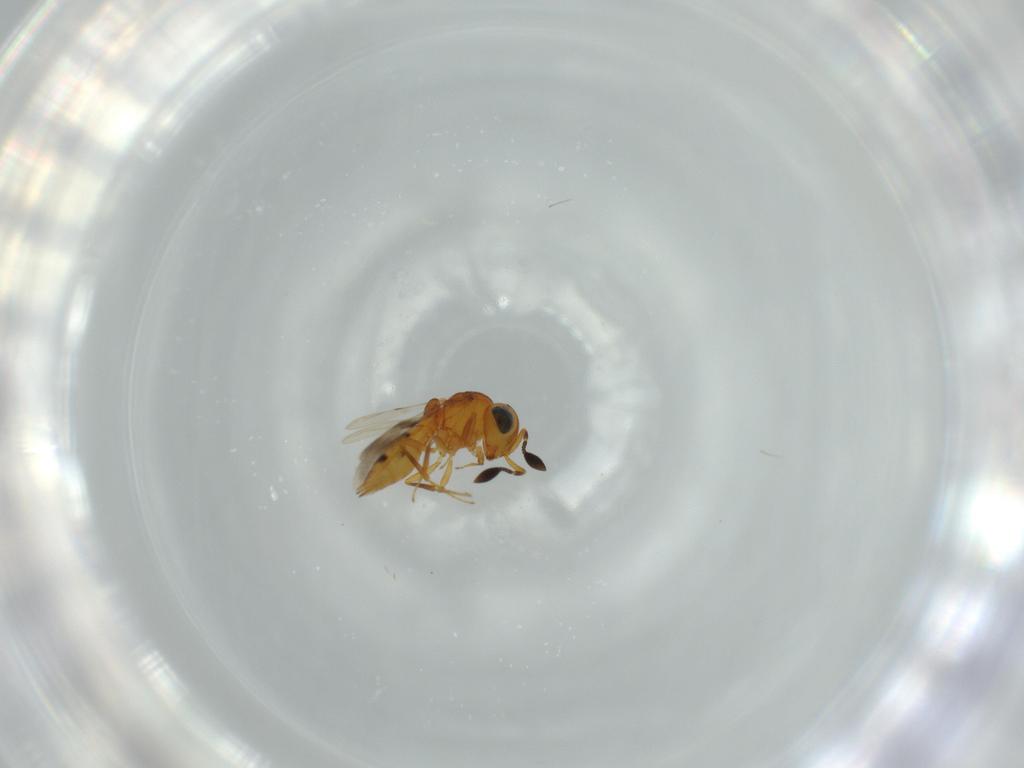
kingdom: Animalia
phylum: Arthropoda
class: Insecta
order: Hymenoptera
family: Scelionidae
